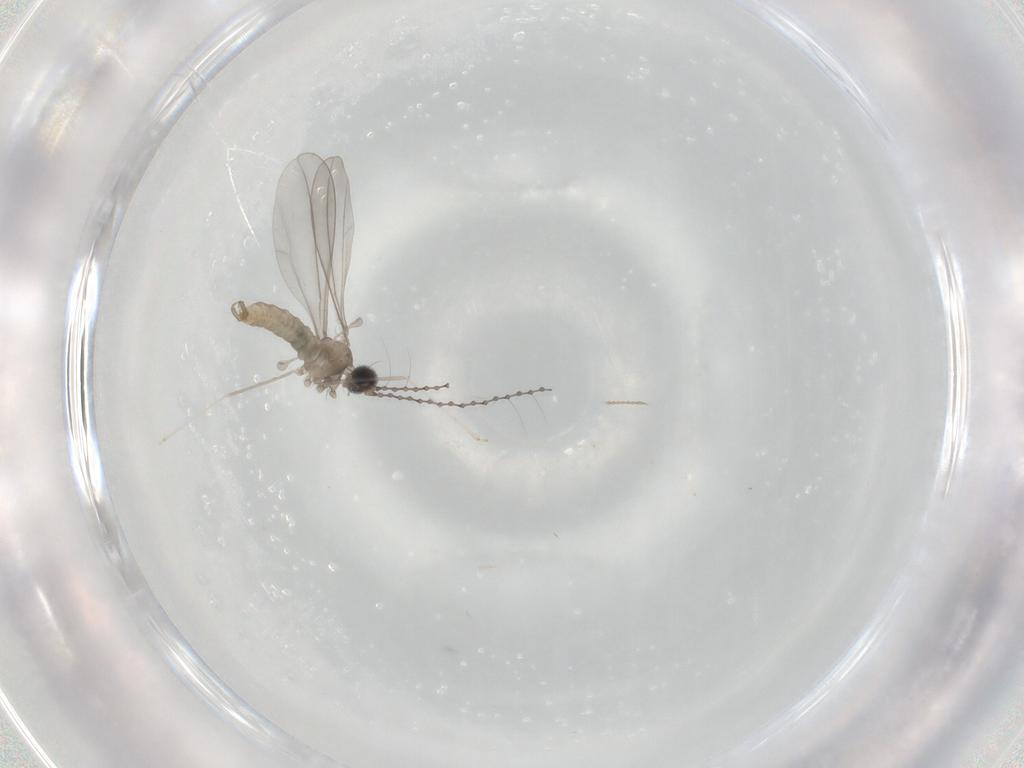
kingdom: Animalia
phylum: Arthropoda
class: Insecta
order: Diptera
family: Cecidomyiidae
